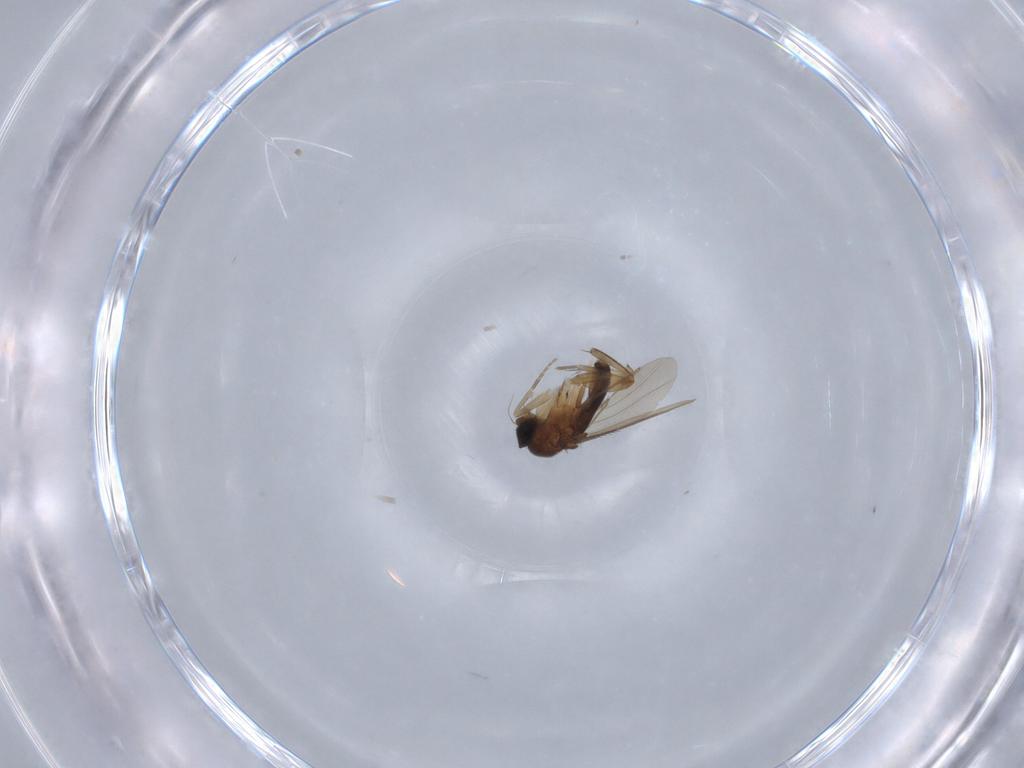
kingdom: Animalia
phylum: Arthropoda
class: Insecta
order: Diptera
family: Phoridae
